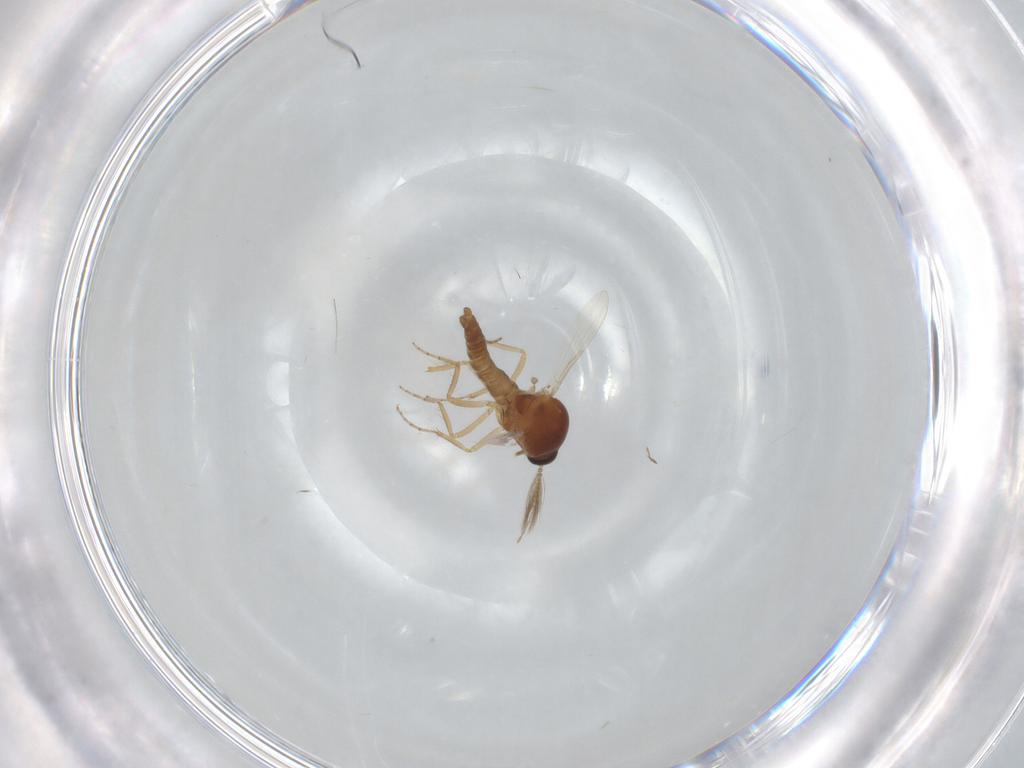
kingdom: Animalia
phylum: Arthropoda
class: Insecta
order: Diptera
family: Ceratopogonidae
